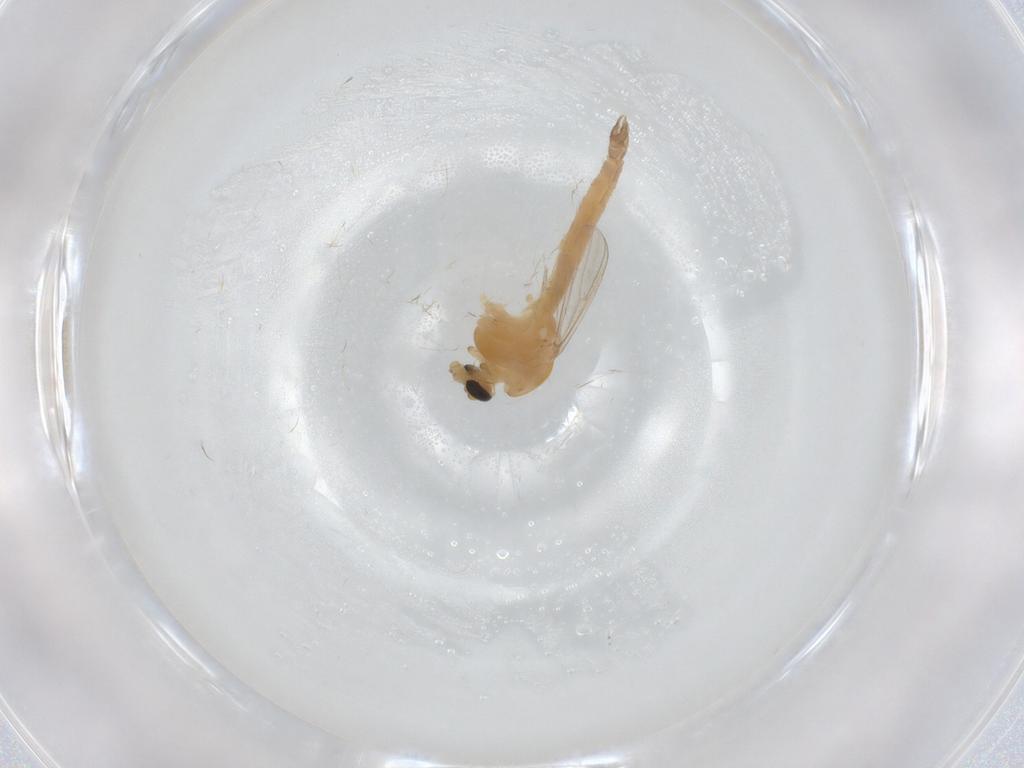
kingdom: Animalia
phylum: Arthropoda
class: Insecta
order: Diptera
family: Chironomidae
